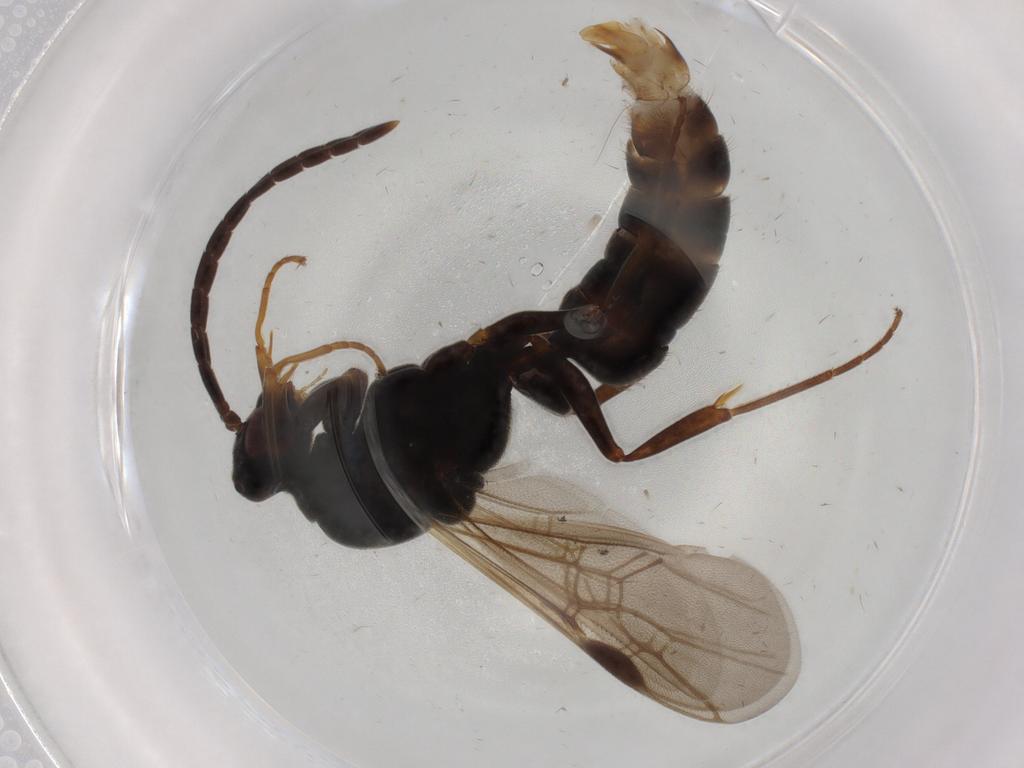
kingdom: Animalia
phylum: Arthropoda
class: Insecta
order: Hymenoptera
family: Formicidae
